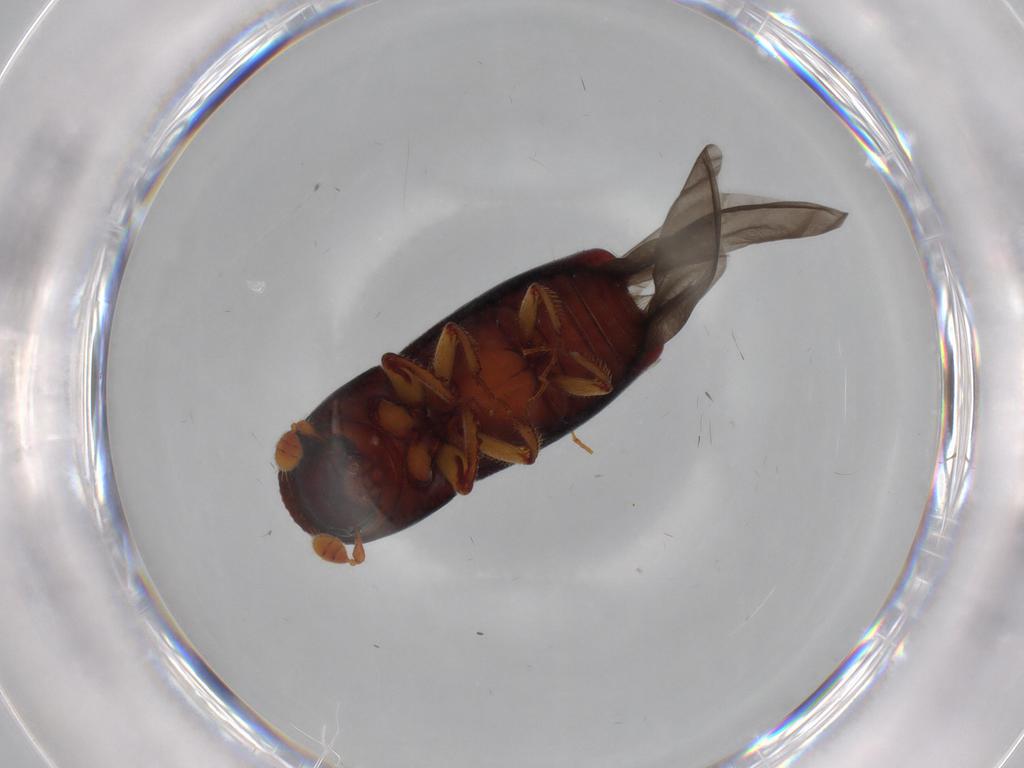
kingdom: Animalia
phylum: Arthropoda
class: Insecta
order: Coleoptera
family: Curculionidae
